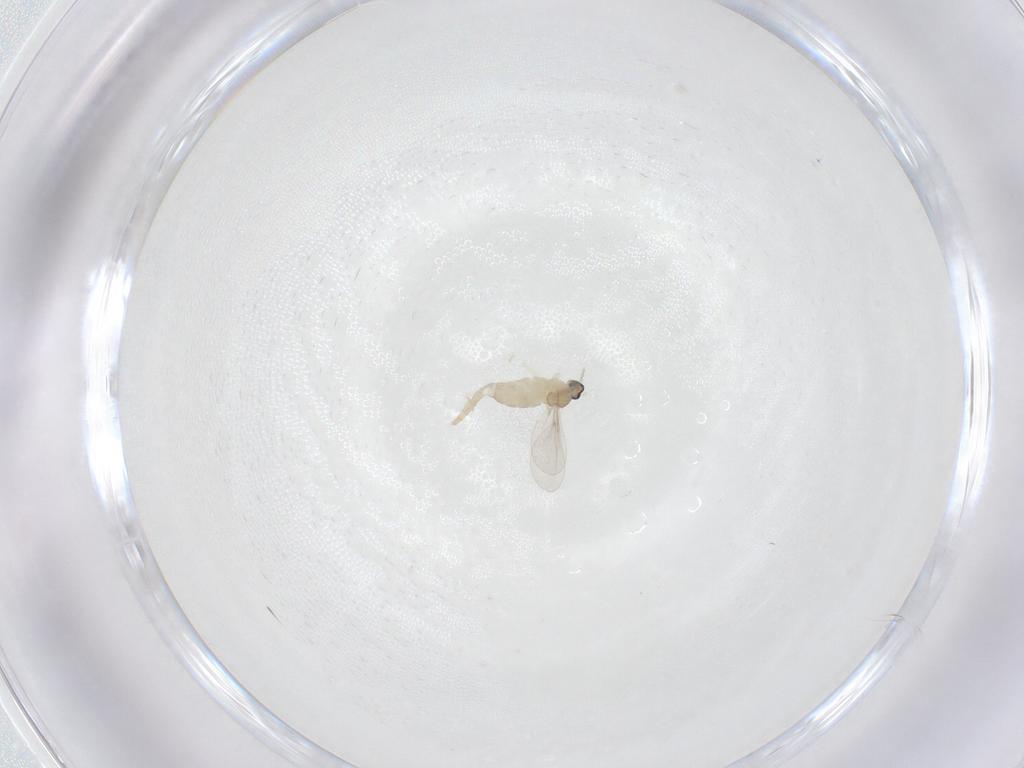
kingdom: Animalia
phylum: Arthropoda
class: Insecta
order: Diptera
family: Cecidomyiidae
